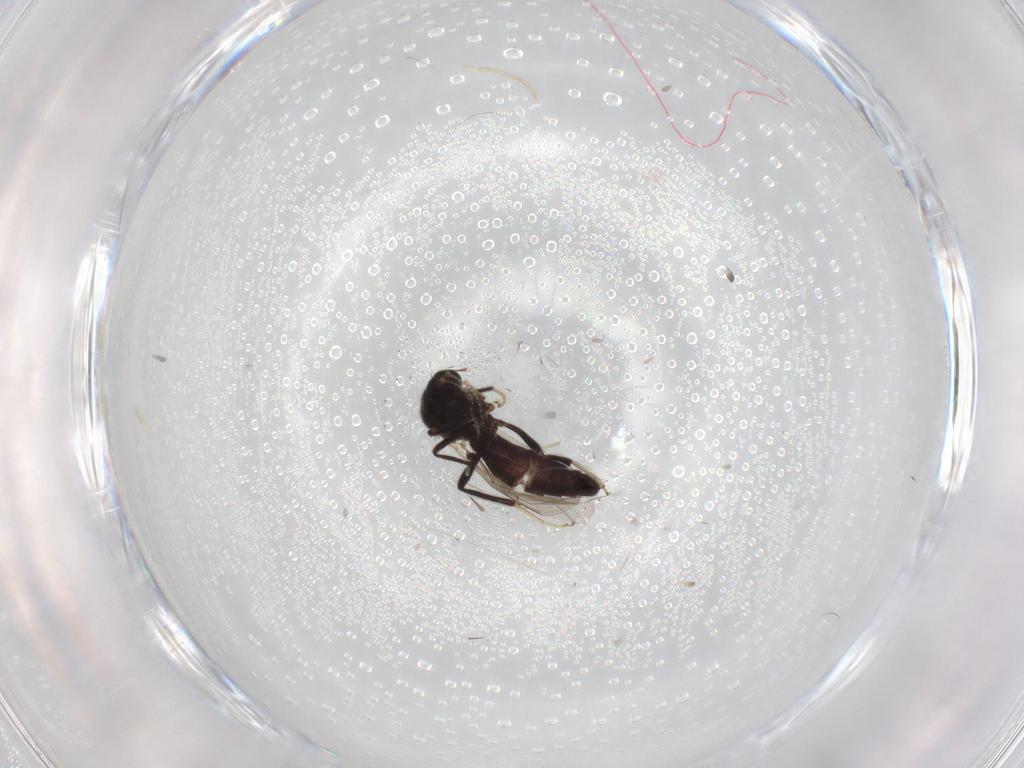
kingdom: Animalia
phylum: Arthropoda
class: Insecta
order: Diptera
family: Ceratopogonidae
